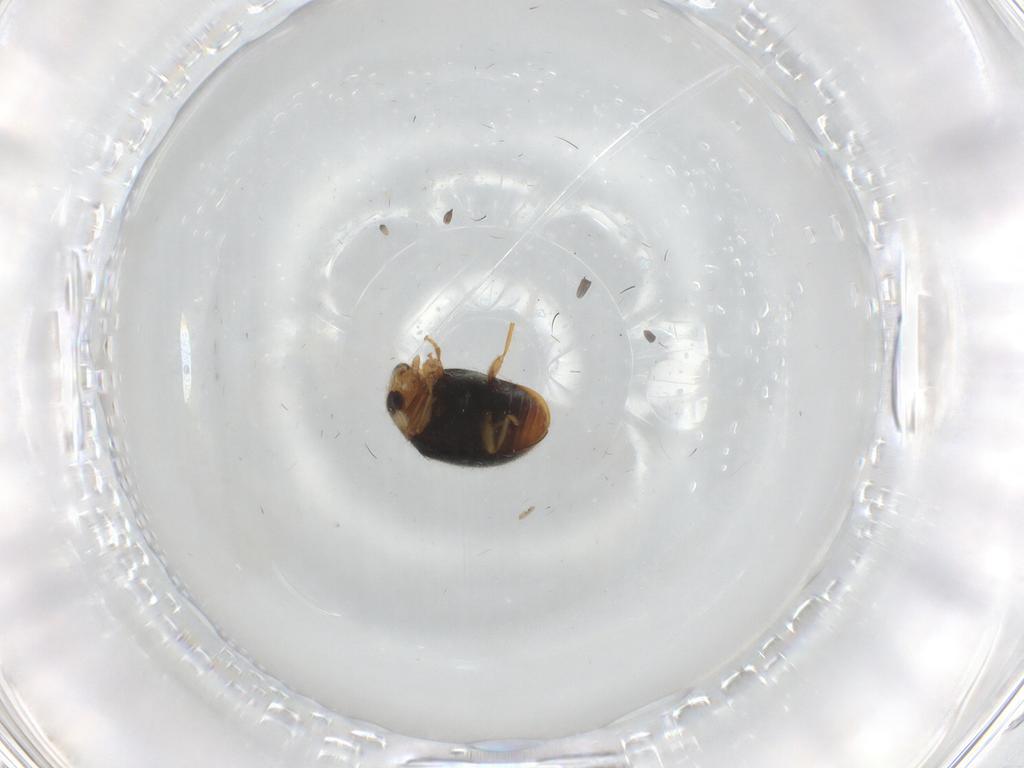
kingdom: Animalia
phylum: Arthropoda
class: Insecta
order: Coleoptera
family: Coccinellidae
